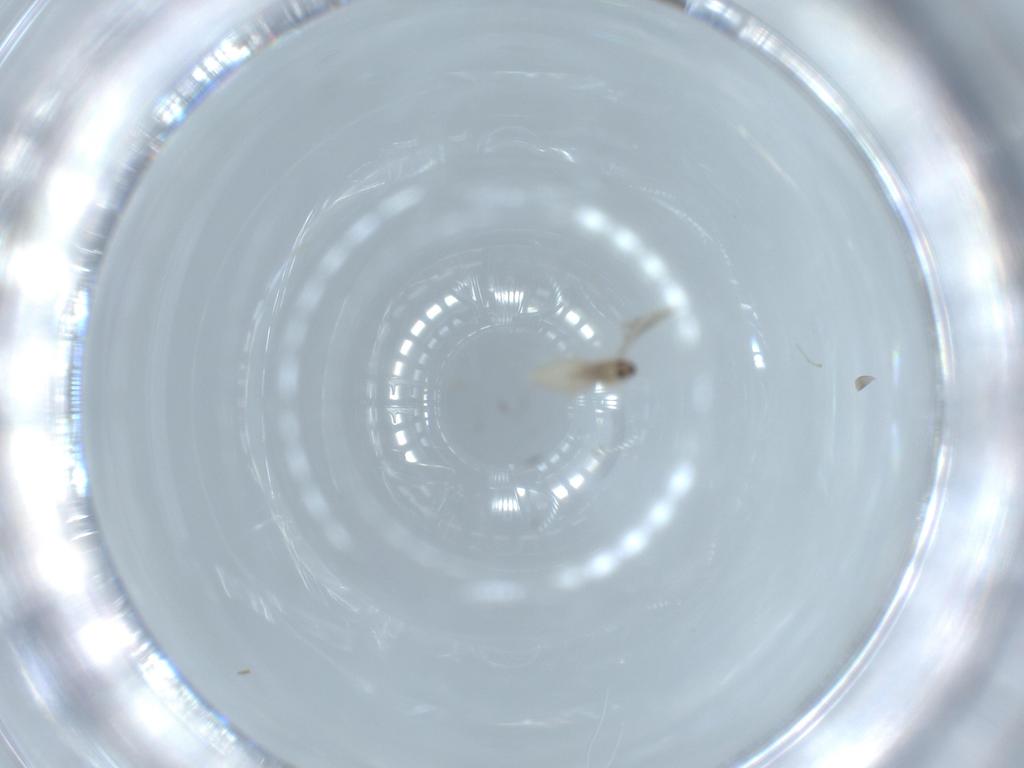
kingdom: Animalia
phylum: Arthropoda
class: Insecta
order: Diptera
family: Cecidomyiidae
